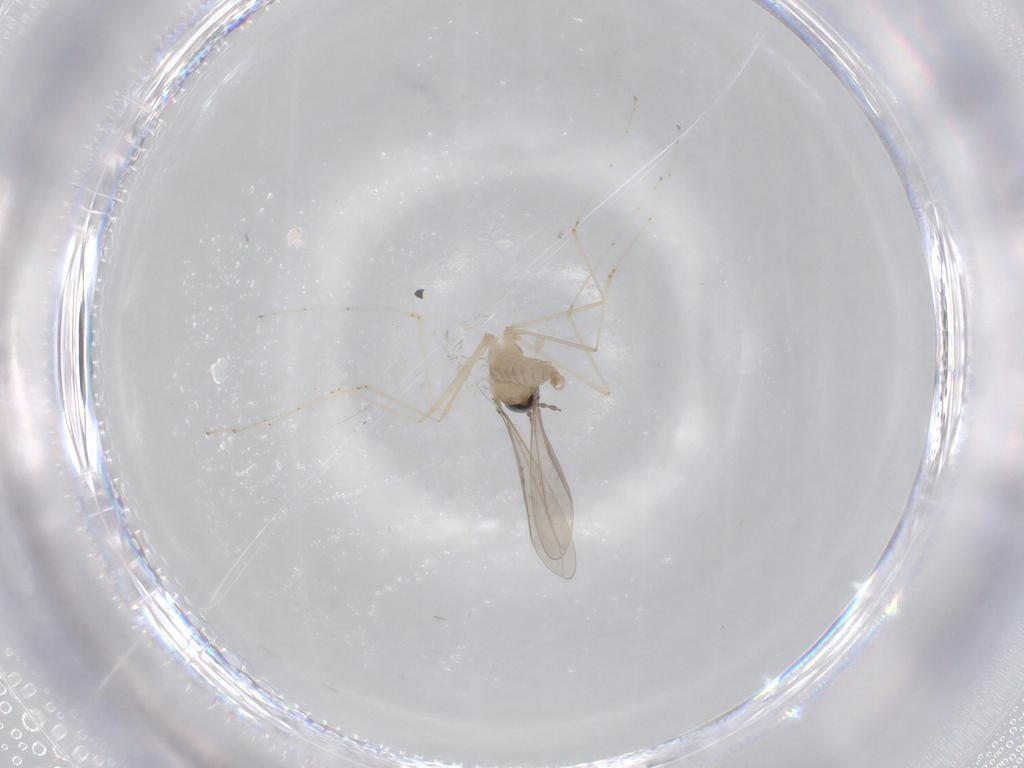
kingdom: Animalia
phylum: Arthropoda
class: Insecta
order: Diptera
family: Cecidomyiidae
